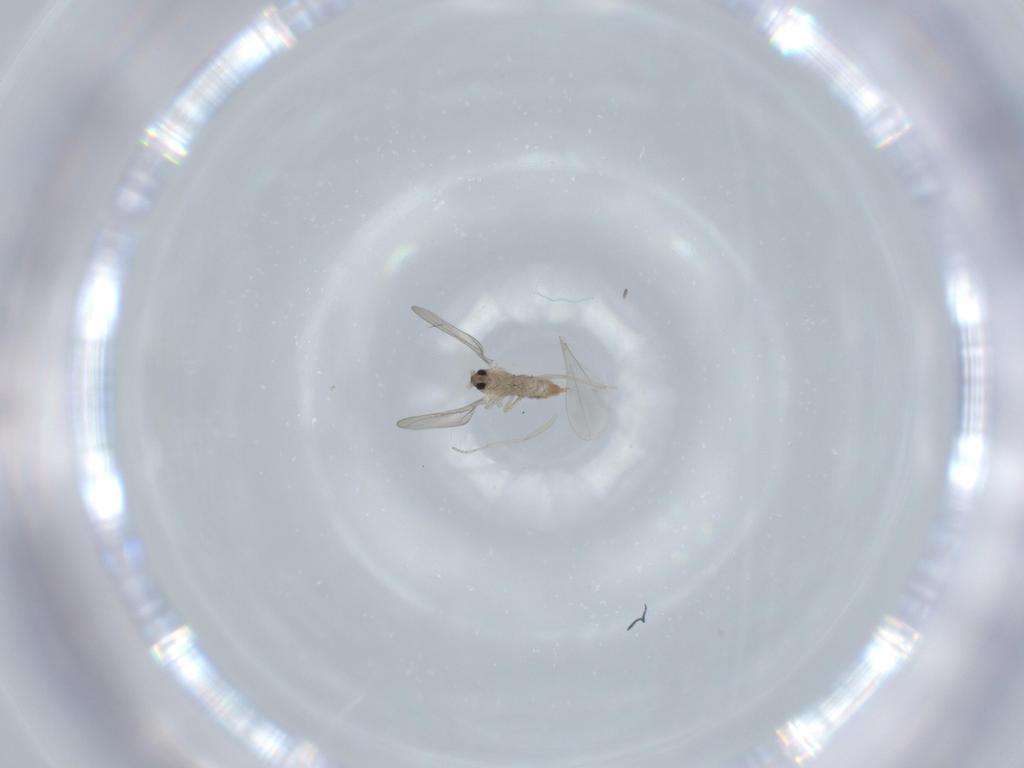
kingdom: Animalia
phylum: Arthropoda
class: Insecta
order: Diptera
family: Cecidomyiidae
